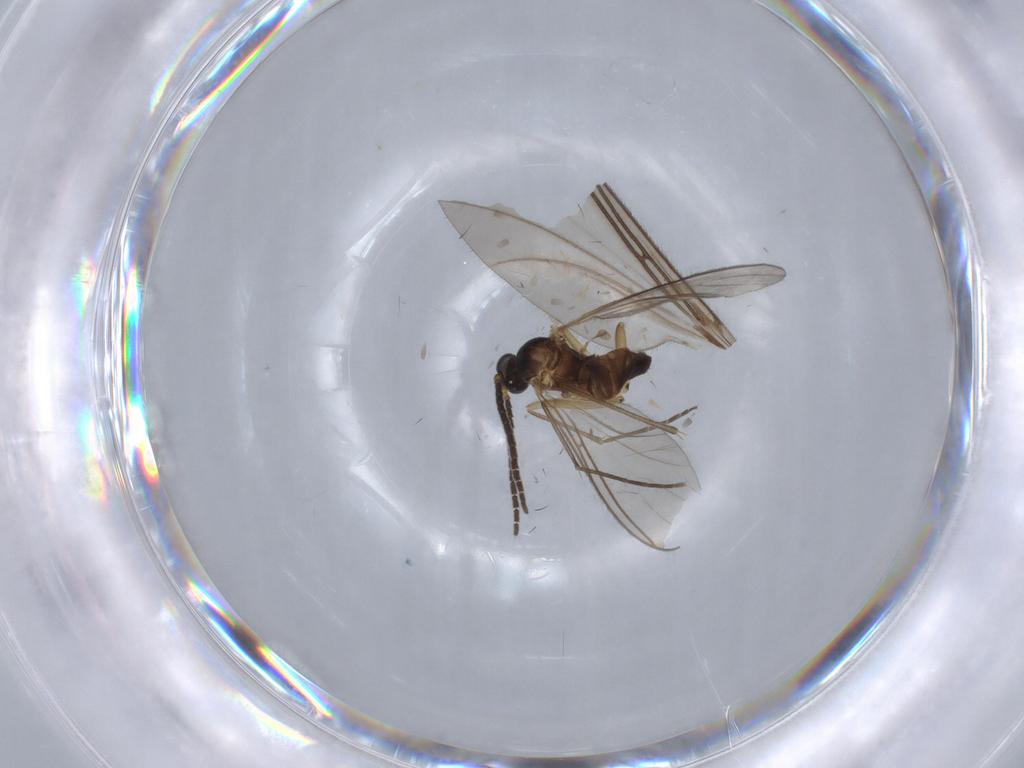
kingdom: Animalia
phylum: Arthropoda
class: Insecta
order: Diptera
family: Sciaridae
